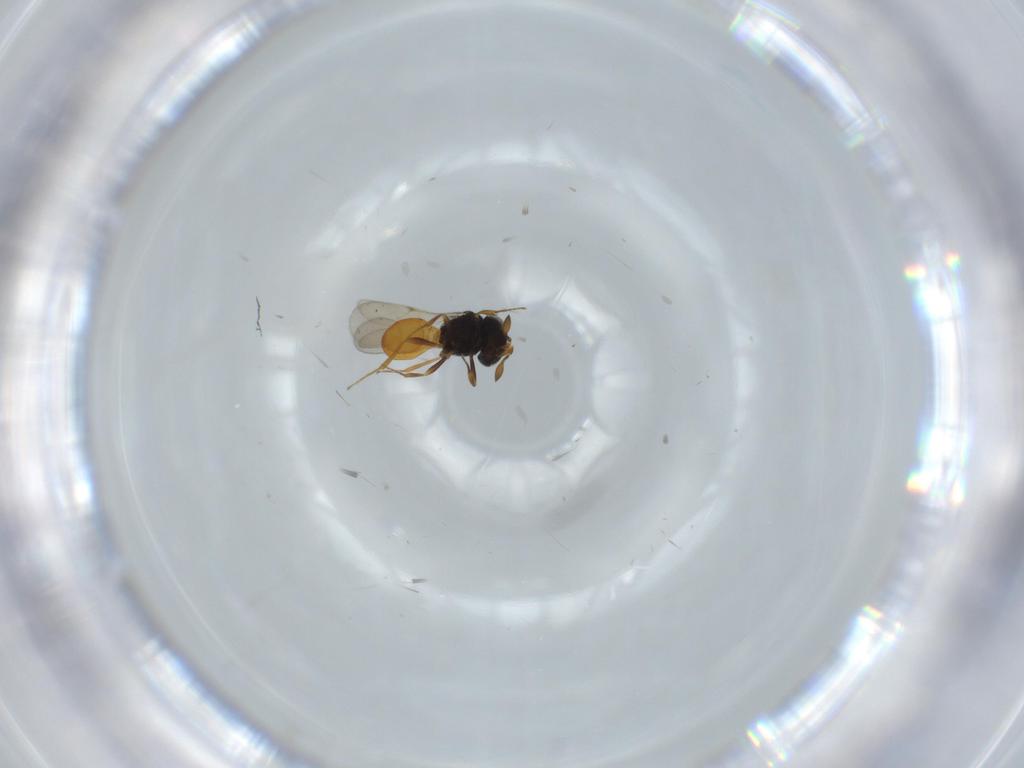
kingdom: Animalia
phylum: Arthropoda
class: Insecta
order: Hymenoptera
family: Scelionidae
